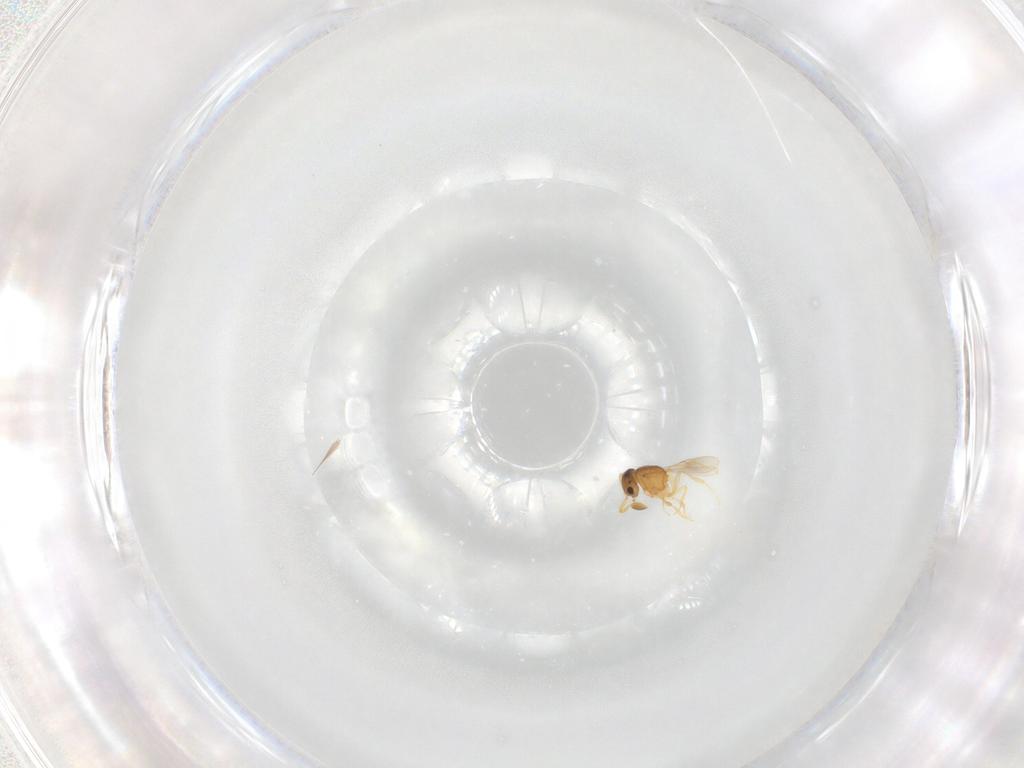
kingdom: Animalia
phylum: Arthropoda
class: Insecta
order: Hymenoptera
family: Scelionidae
